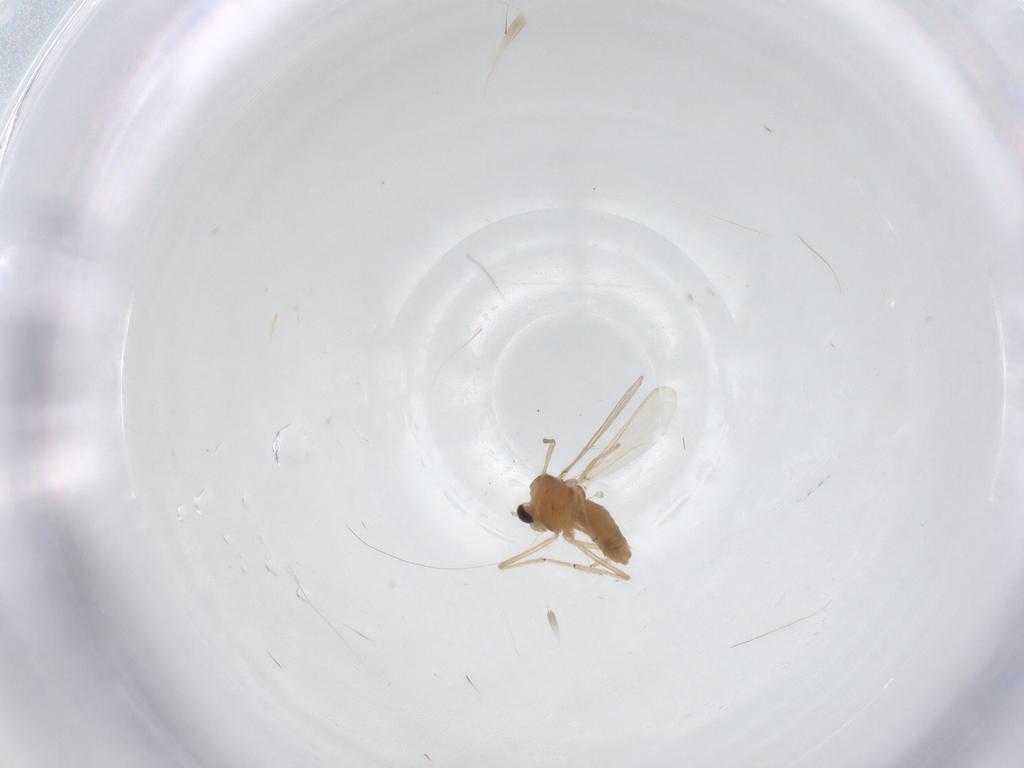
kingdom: Animalia
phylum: Arthropoda
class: Insecta
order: Diptera
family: Chironomidae
